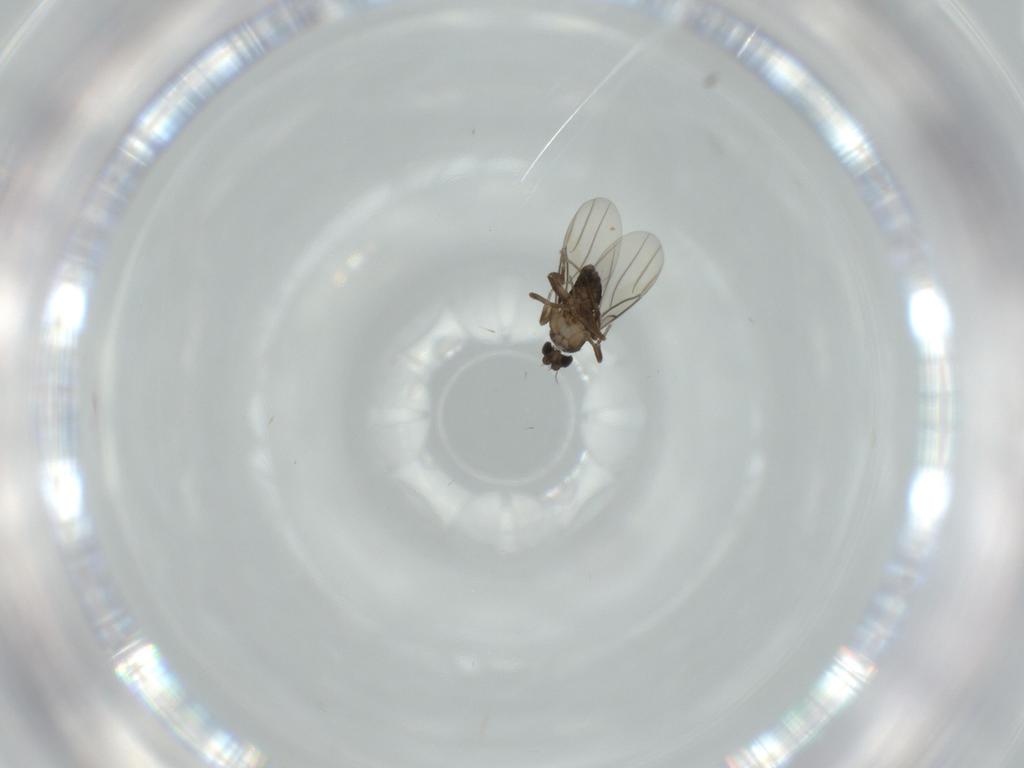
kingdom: Animalia
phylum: Arthropoda
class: Insecta
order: Diptera
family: Phoridae
